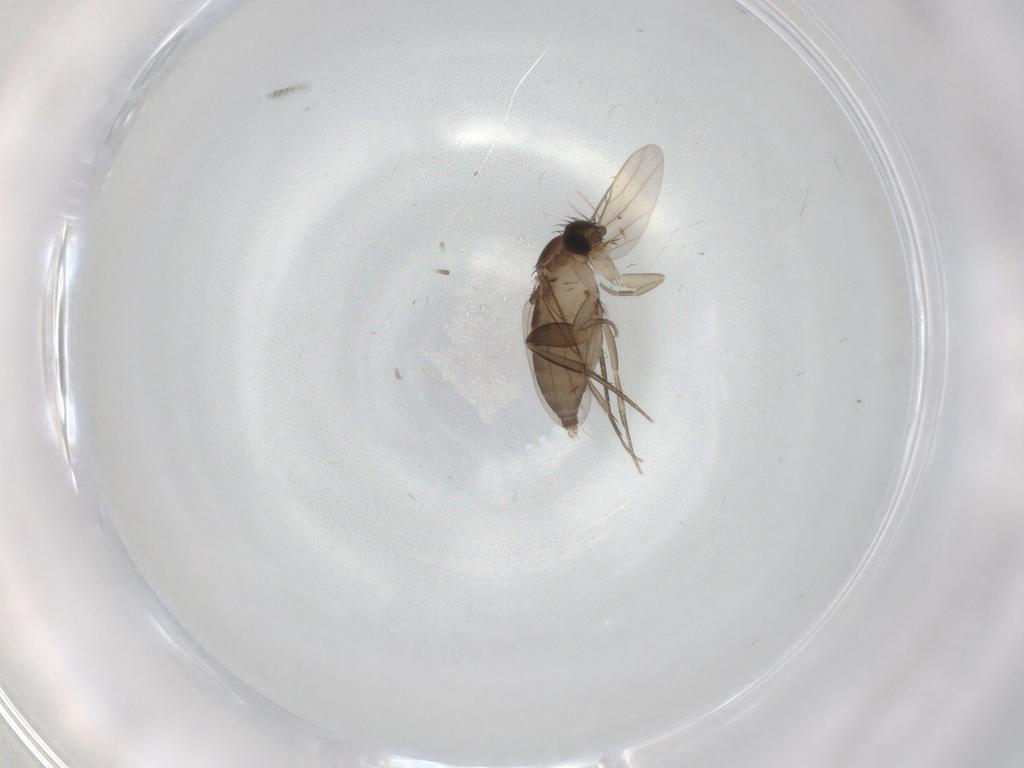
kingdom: Animalia
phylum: Arthropoda
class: Insecta
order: Diptera
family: Phoridae
